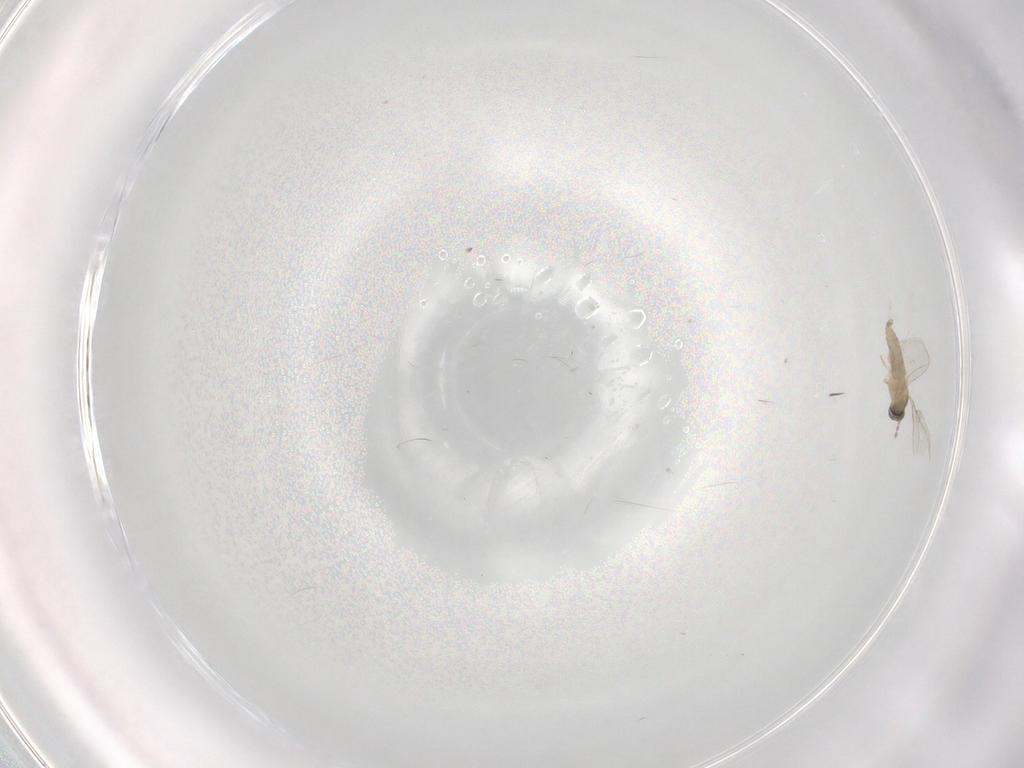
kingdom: Animalia
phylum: Arthropoda
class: Insecta
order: Diptera
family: Cecidomyiidae
